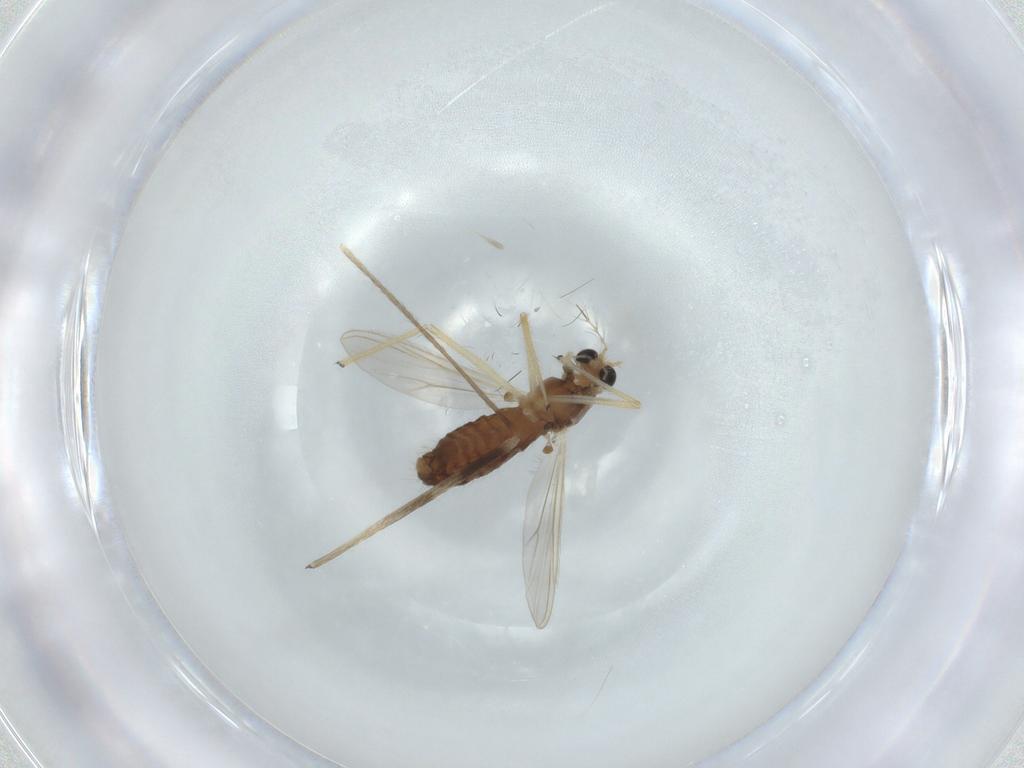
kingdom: Animalia
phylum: Arthropoda
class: Insecta
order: Diptera
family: Chironomidae
